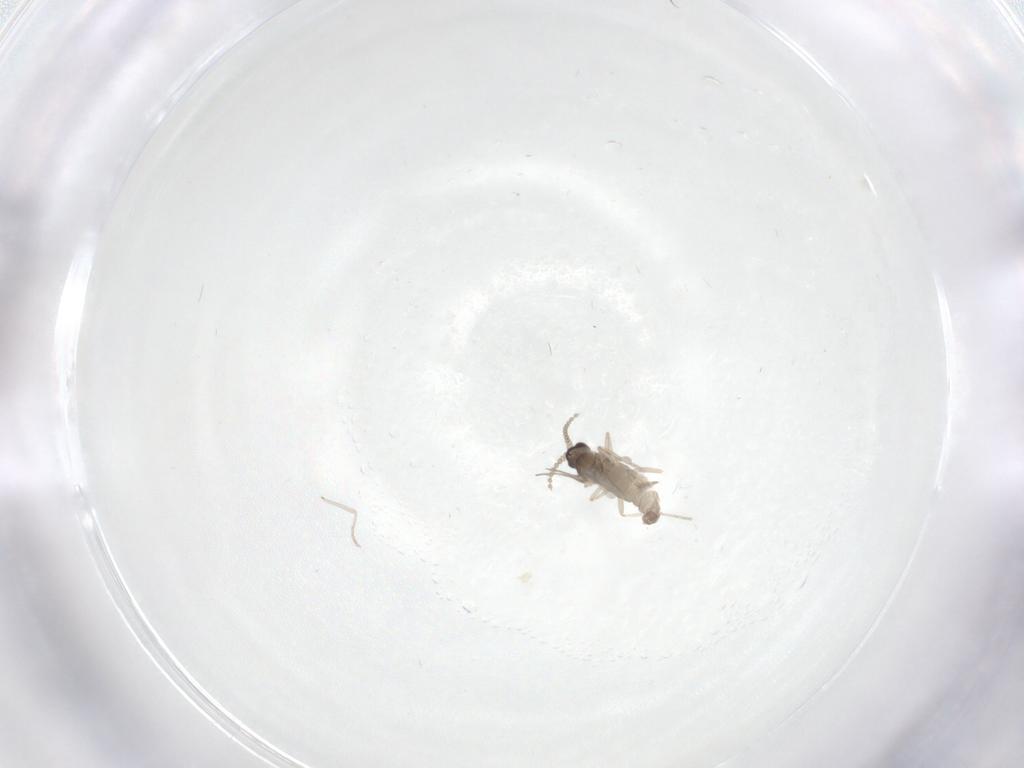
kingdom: Animalia
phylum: Arthropoda
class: Insecta
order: Diptera
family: Cecidomyiidae
